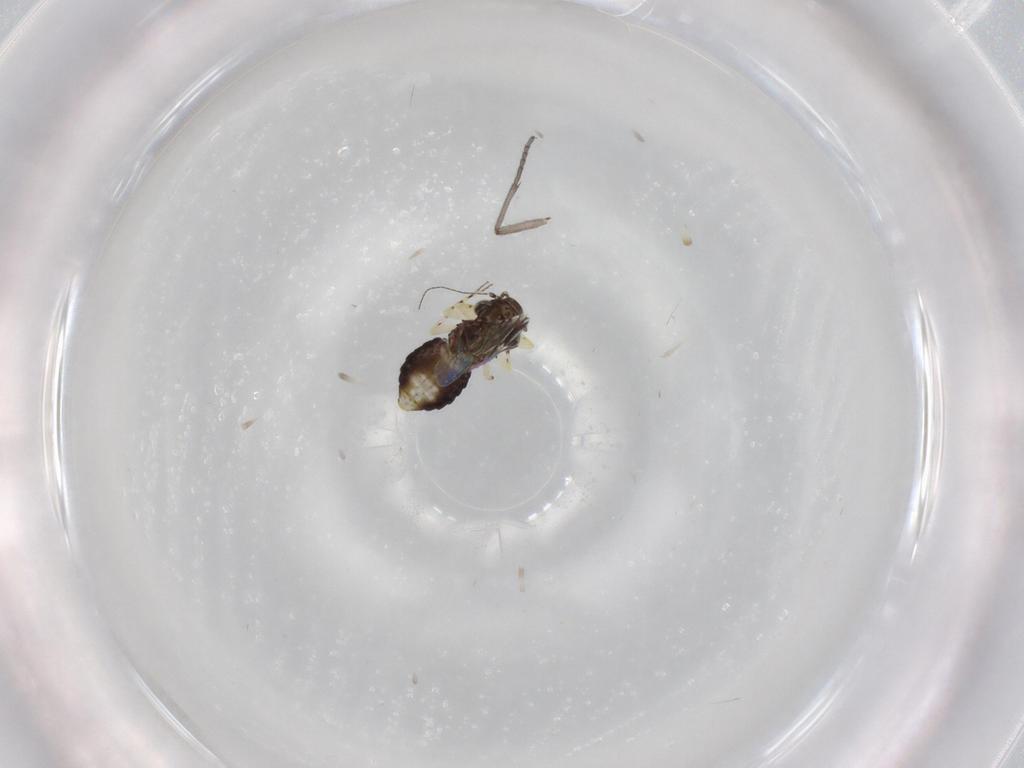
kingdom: Animalia
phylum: Arthropoda
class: Insecta
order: Psocodea
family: Psoquillidae
